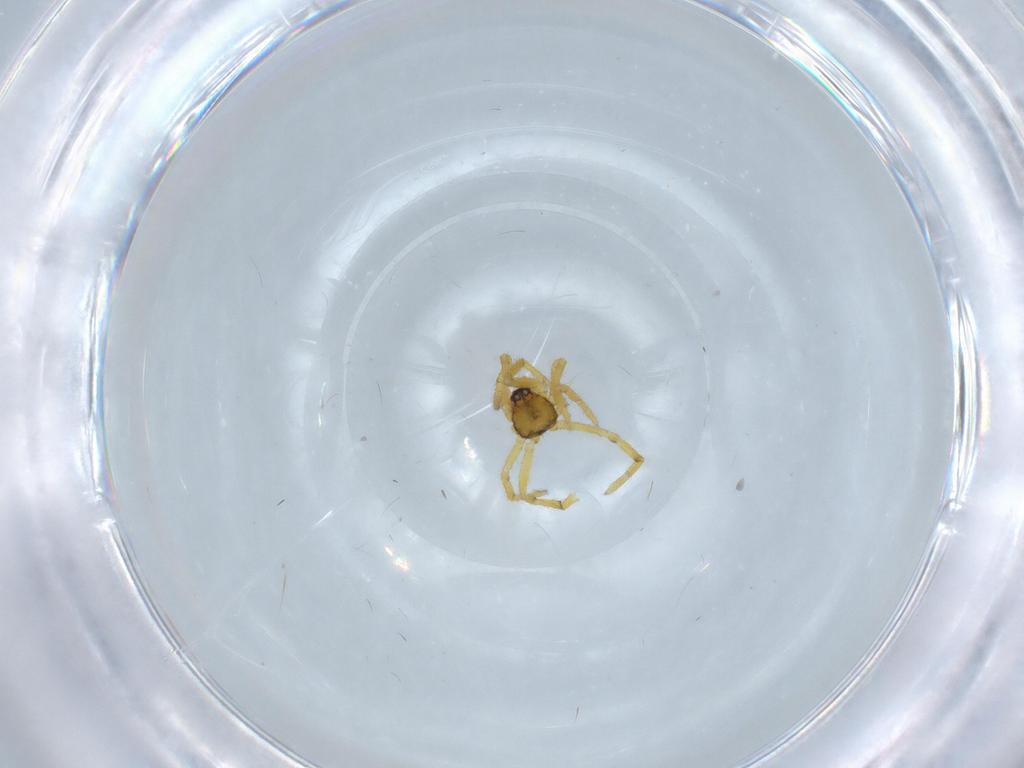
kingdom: Animalia
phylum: Arthropoda
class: Arachnida
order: Araneae
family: Theridiidae
